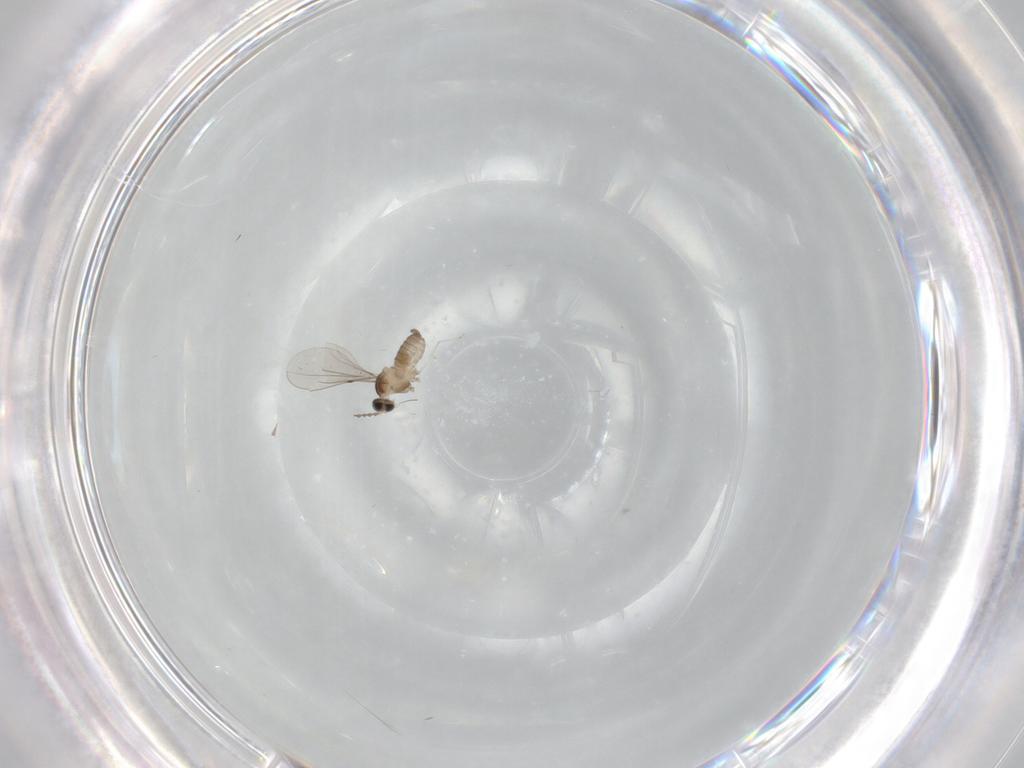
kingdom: Animalia
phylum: Arthropoda
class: Insecta
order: Diptera
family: Cecidomyiidae
